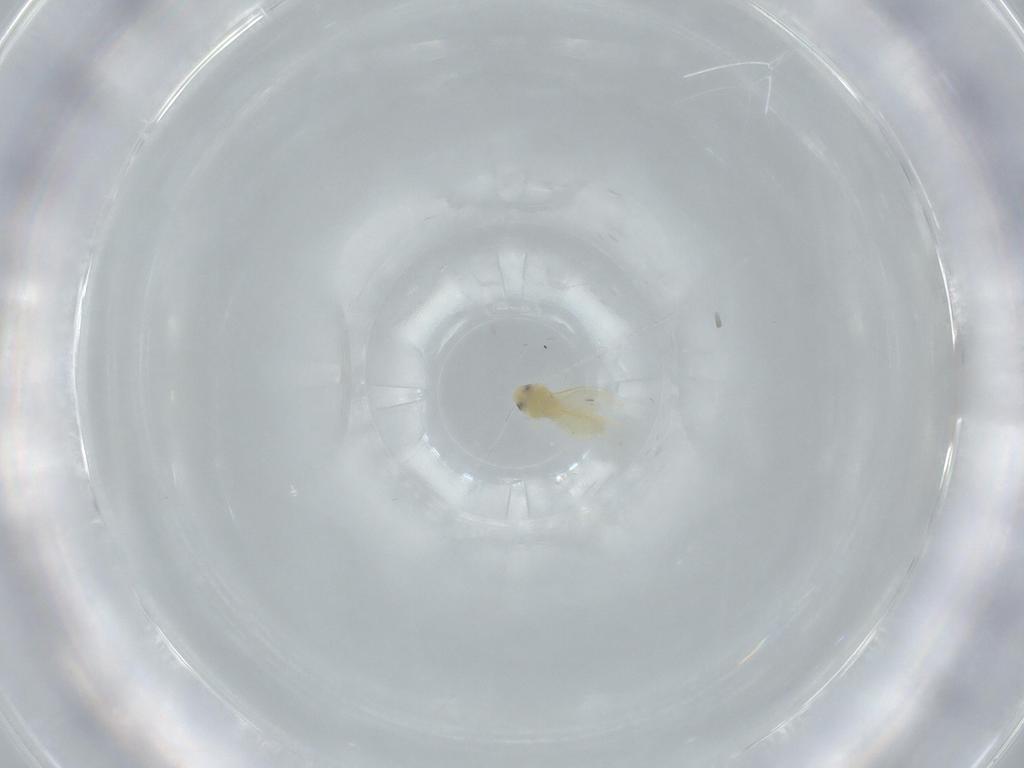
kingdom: Animalia
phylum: Arthropoda
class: Insecta
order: Hemiptera
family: Aleyrodidae
